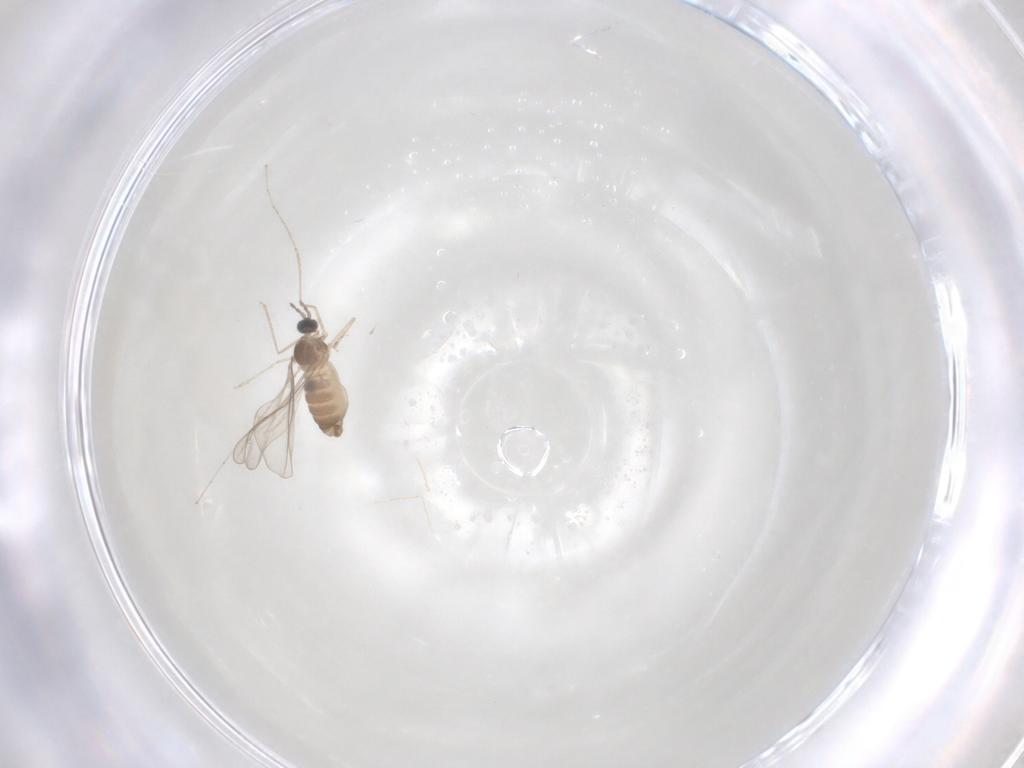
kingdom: Animalia
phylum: Arthropoda
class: Insecta
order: Diptera
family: Cecidomyiidae
